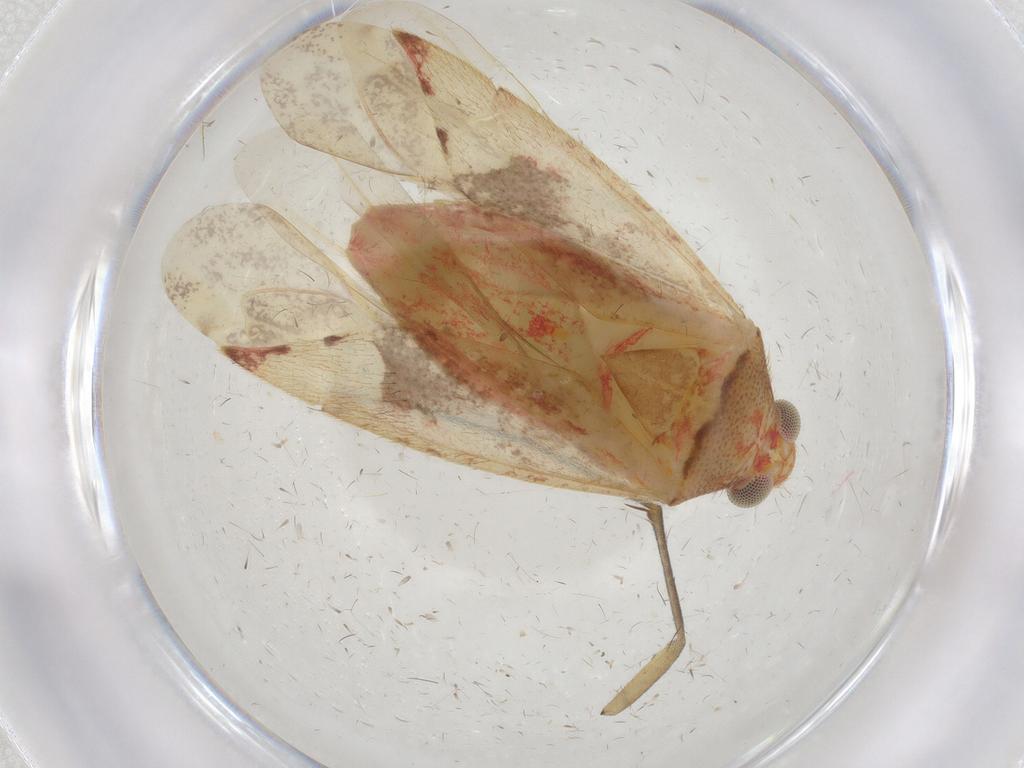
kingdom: Animalia
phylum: Arthropoda
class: Insecta
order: Hemiptera
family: Miridae
